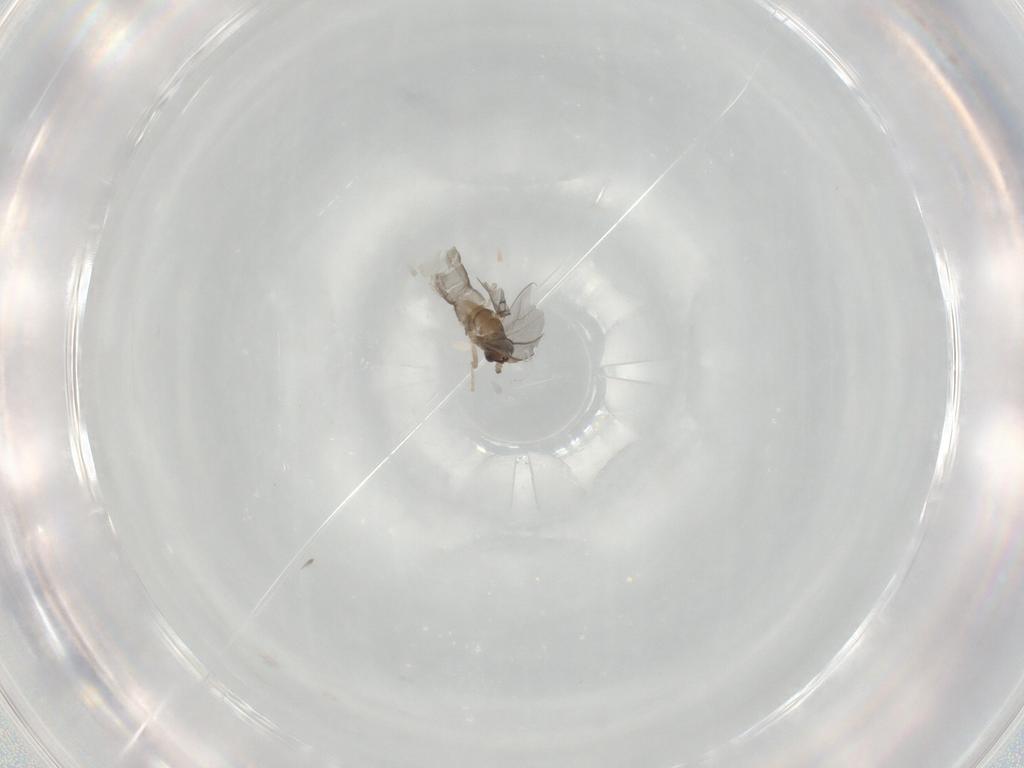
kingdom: Animalia
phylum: Arthropoda
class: Insecta
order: Diptera
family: Chironomidae
